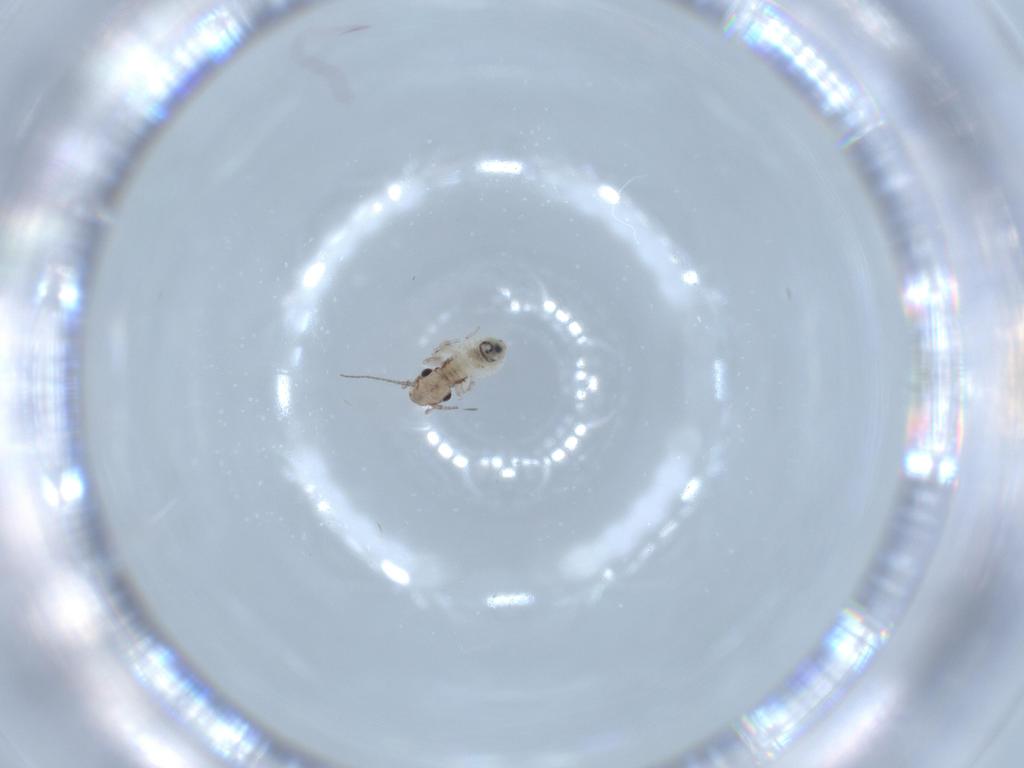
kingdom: Animalia
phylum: Arthropoda
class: Insecta
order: Psocodea
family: Lepidopsocidae
